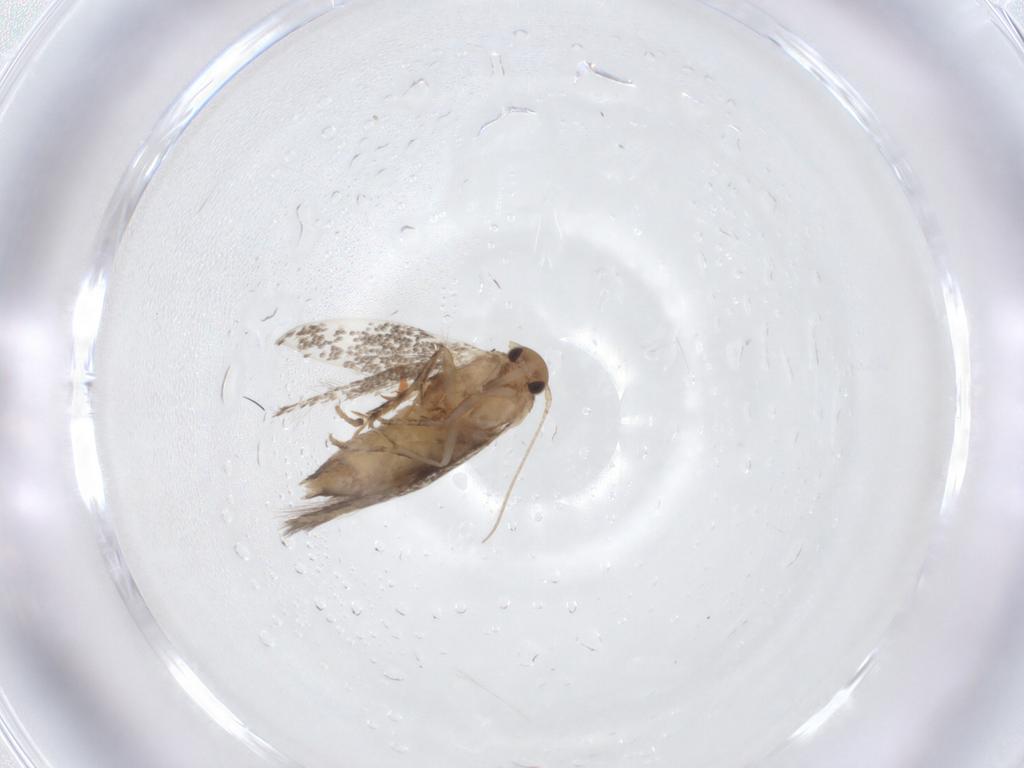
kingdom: Animalia
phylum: Arthropoda
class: Insecta
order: Lepidoptera
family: Elachistidae
